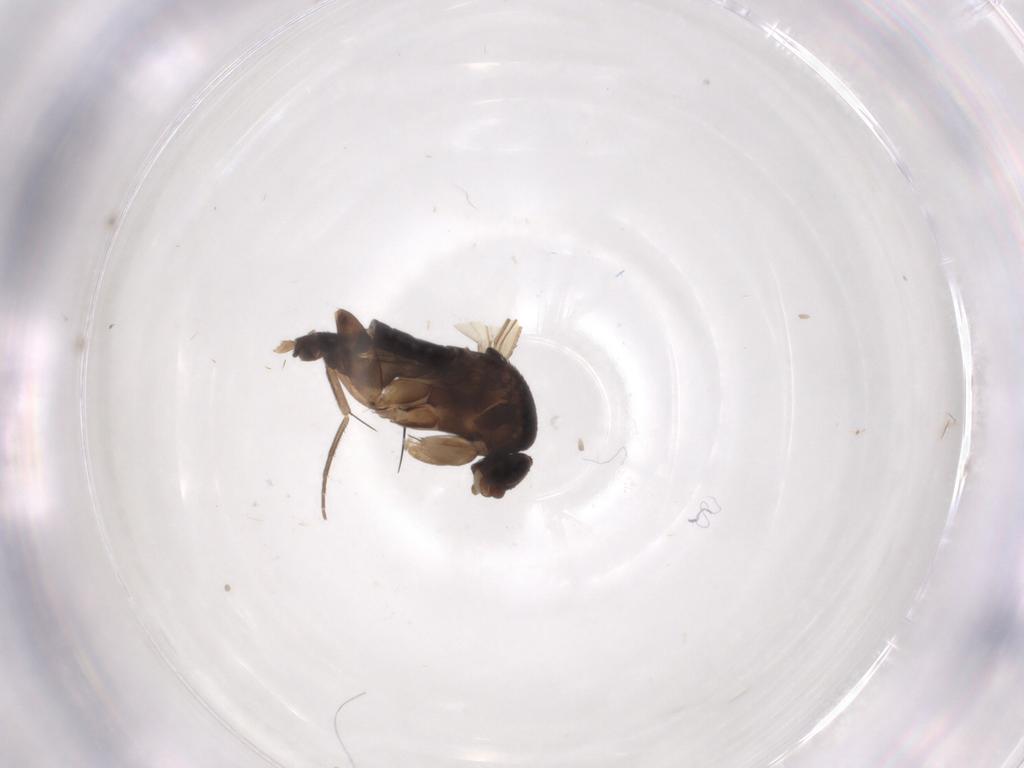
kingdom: Animalia
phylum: Arthropoda
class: Insecta
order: Diptera
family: Phoridae
